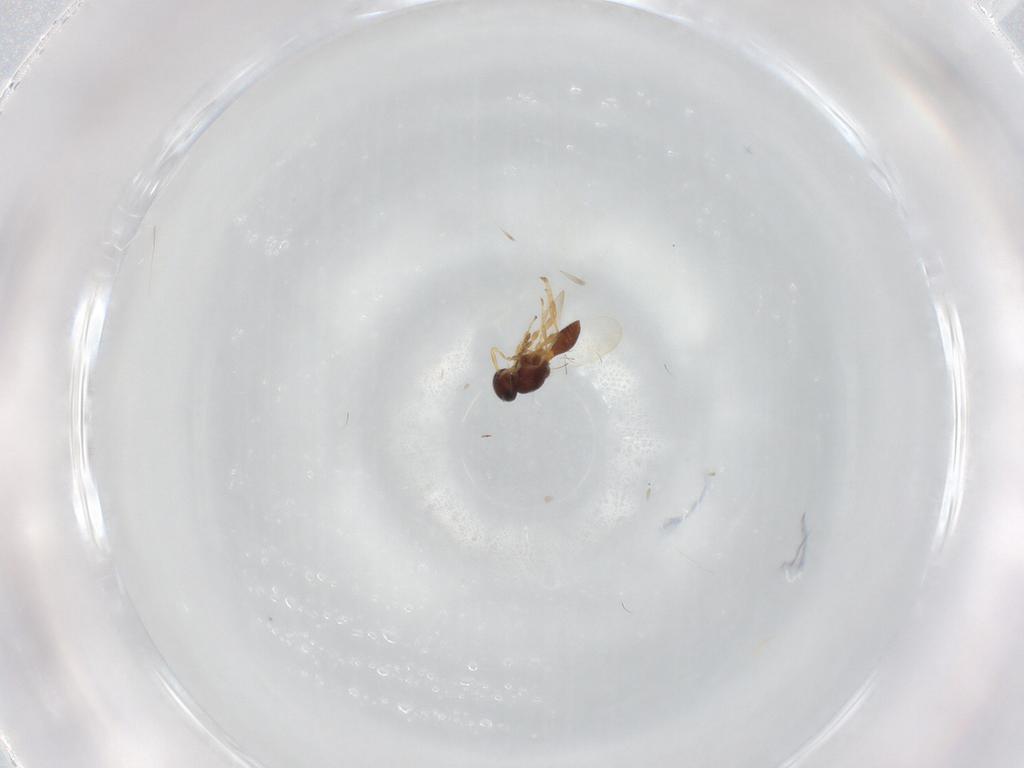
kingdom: Animalia
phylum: Arthropoda
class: Insecta
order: Hymenoptera
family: Platygastridae
